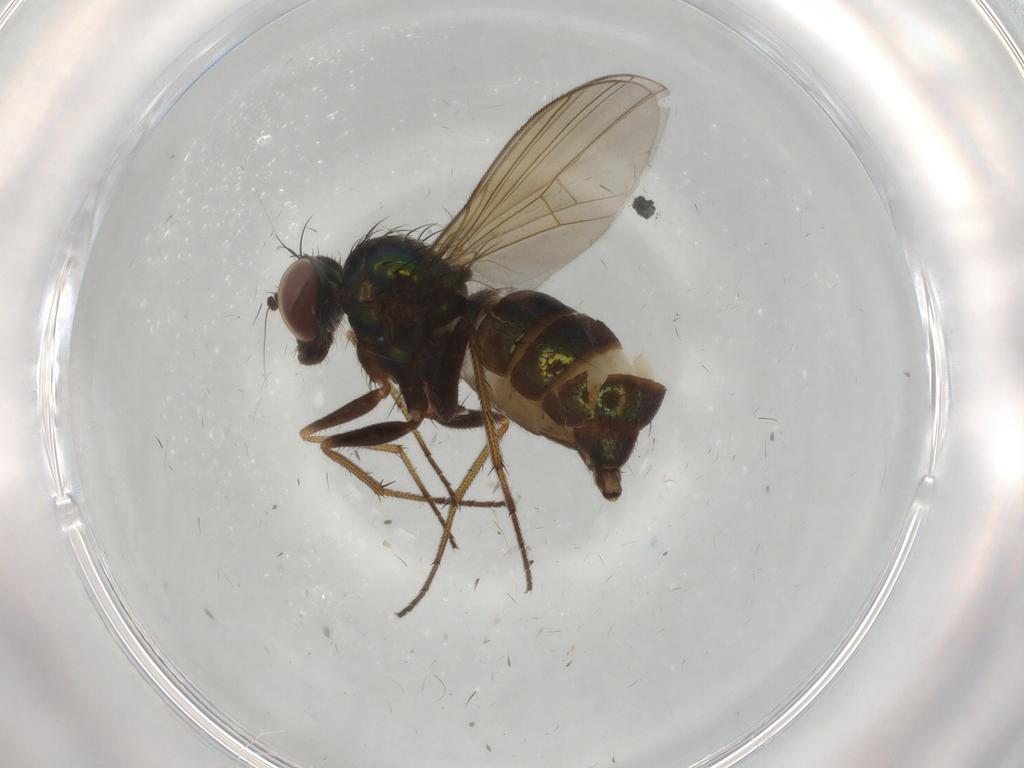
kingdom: Animalia
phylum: Arthropoda
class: Insecta
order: Diptera
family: Dolichopodidae
